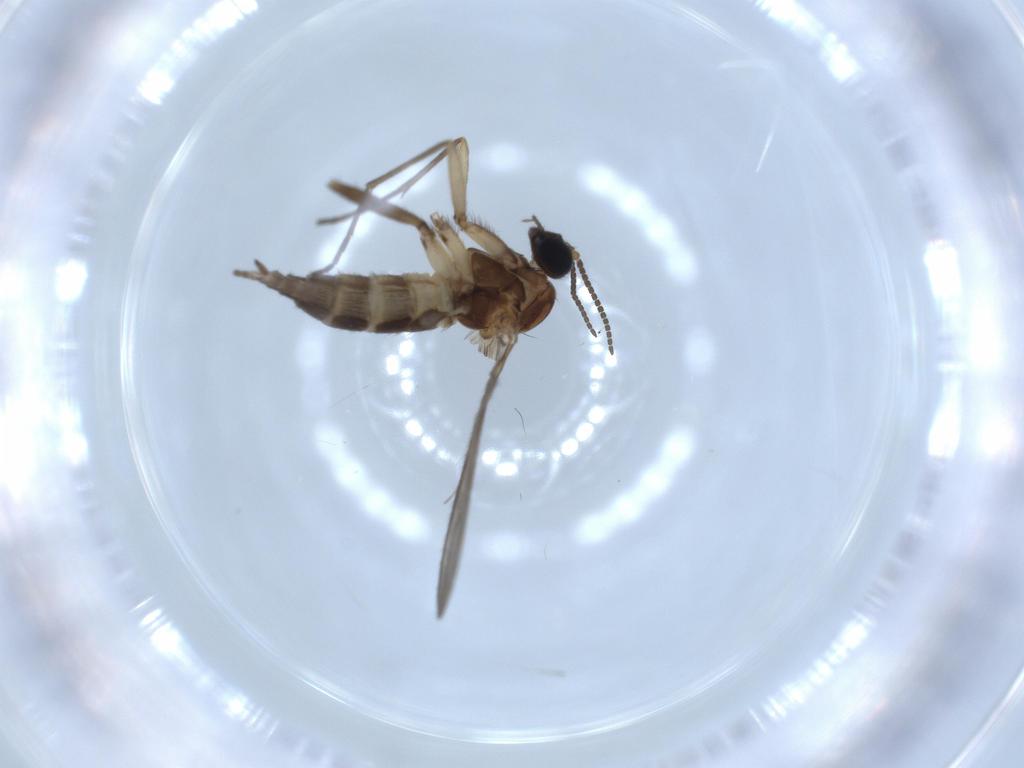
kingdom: Animalia
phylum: Arthropoda
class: Insecta
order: Diptera
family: Sciaridae
